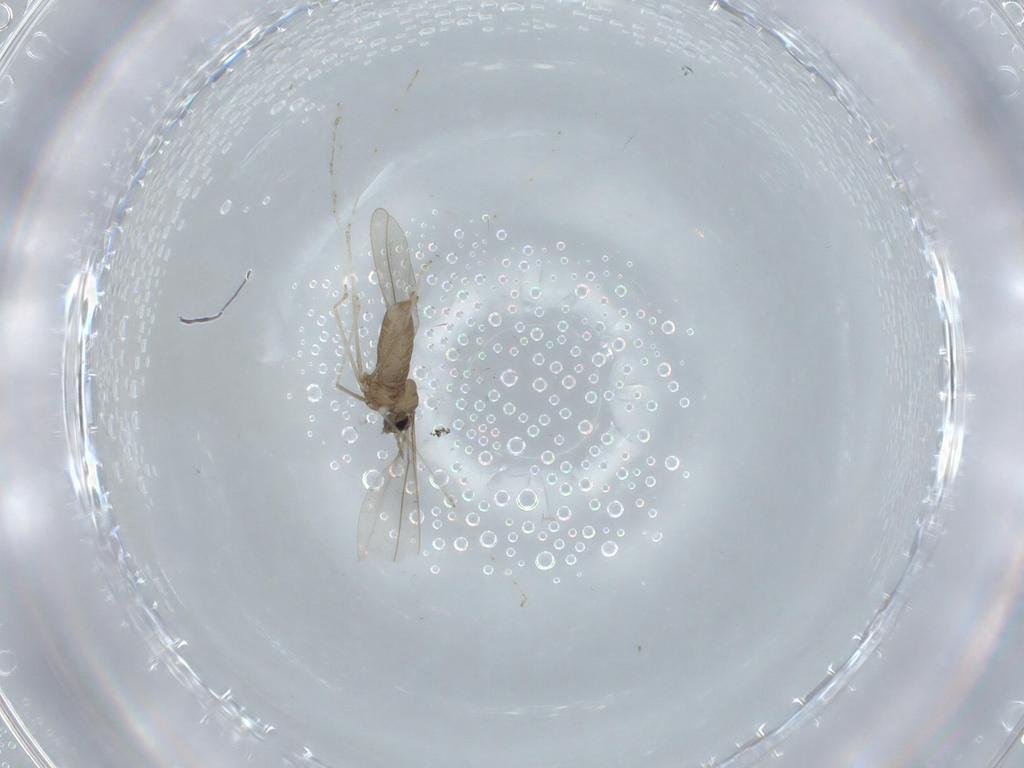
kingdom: Animalia
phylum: Arthropoda
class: Insecta
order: Diptera
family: Cecidomyiidae
